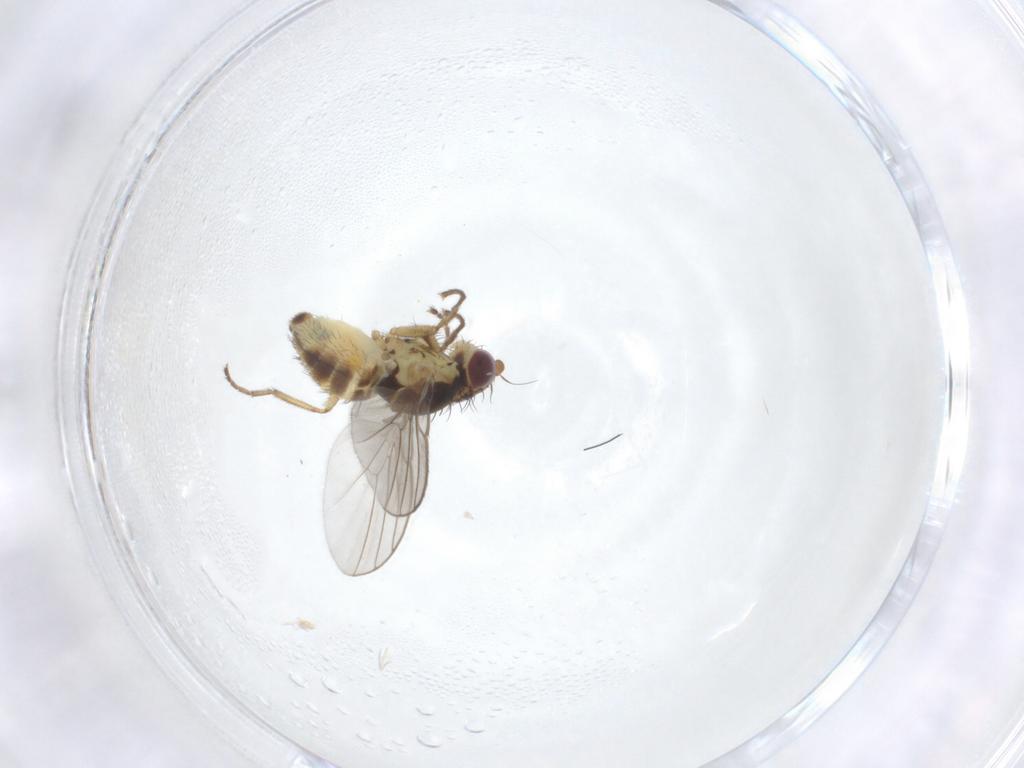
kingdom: Animalia
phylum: Arthropoda
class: Insecta
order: Diptera
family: Agromyzidae
